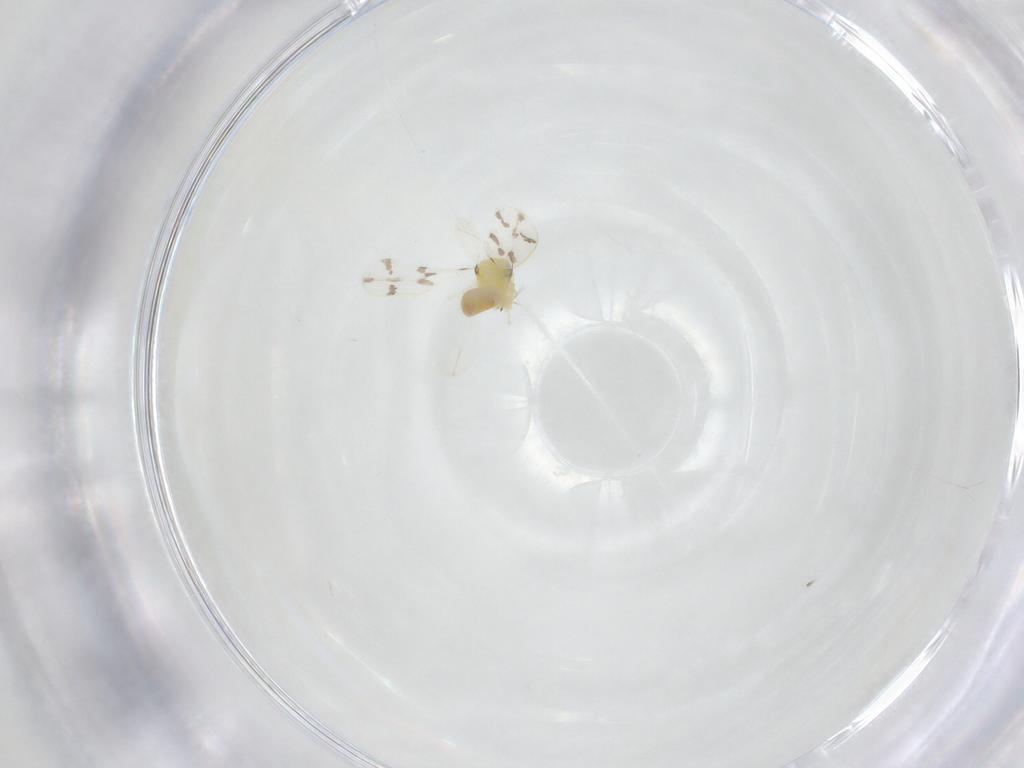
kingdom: Animalia
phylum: Arthropoda
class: Insecta
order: Hemiptera
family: Aleyrodidae
